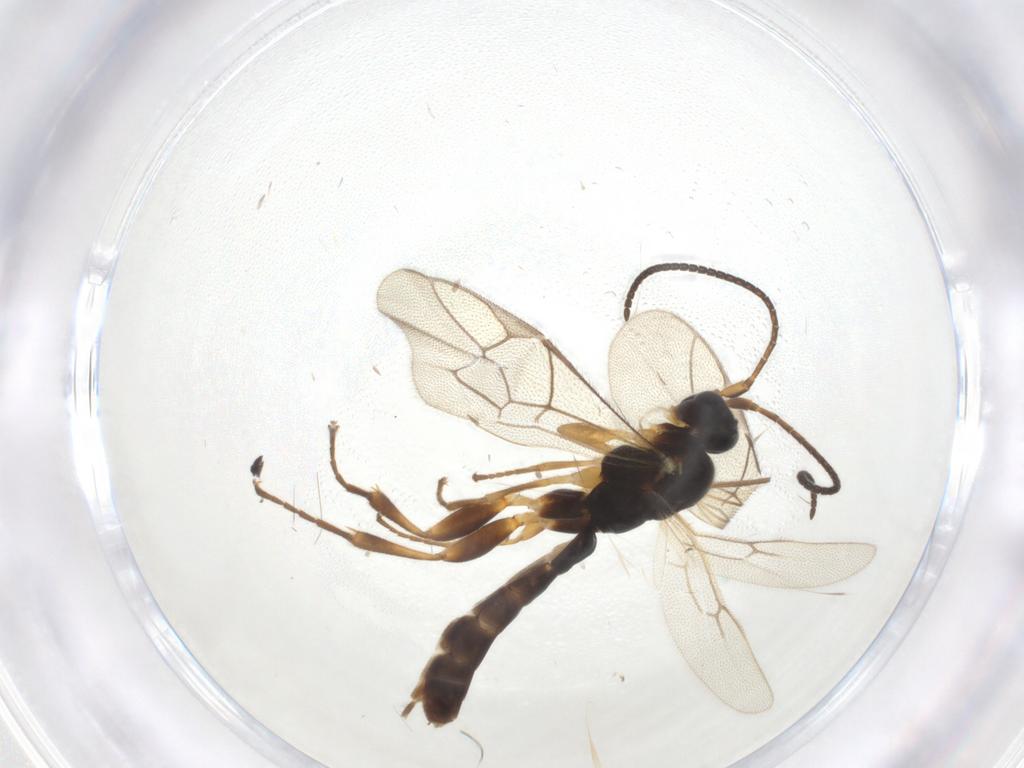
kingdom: Animalia
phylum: Arthropoda
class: Insecta
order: Hymenoptera
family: Ichneumonidae
